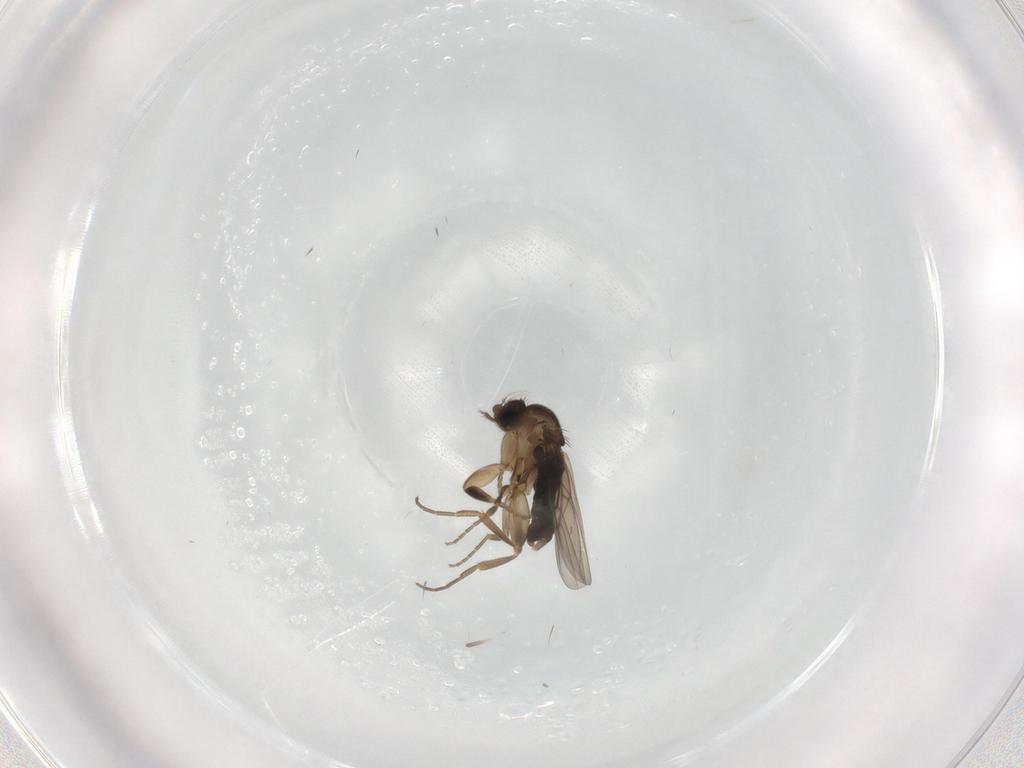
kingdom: Animalia
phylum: Arthropoda
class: Insecta
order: Diptera
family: Phoridae
